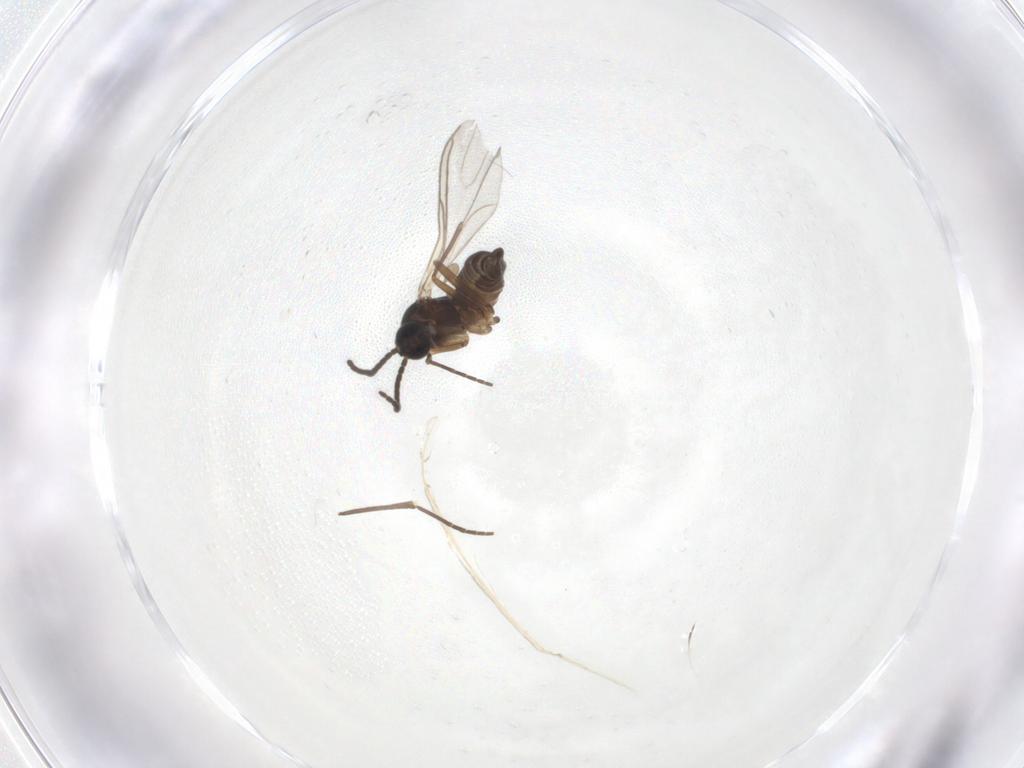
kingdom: Animalia
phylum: Arthropoda
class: Insecta
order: Diptera
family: Sciaridae
